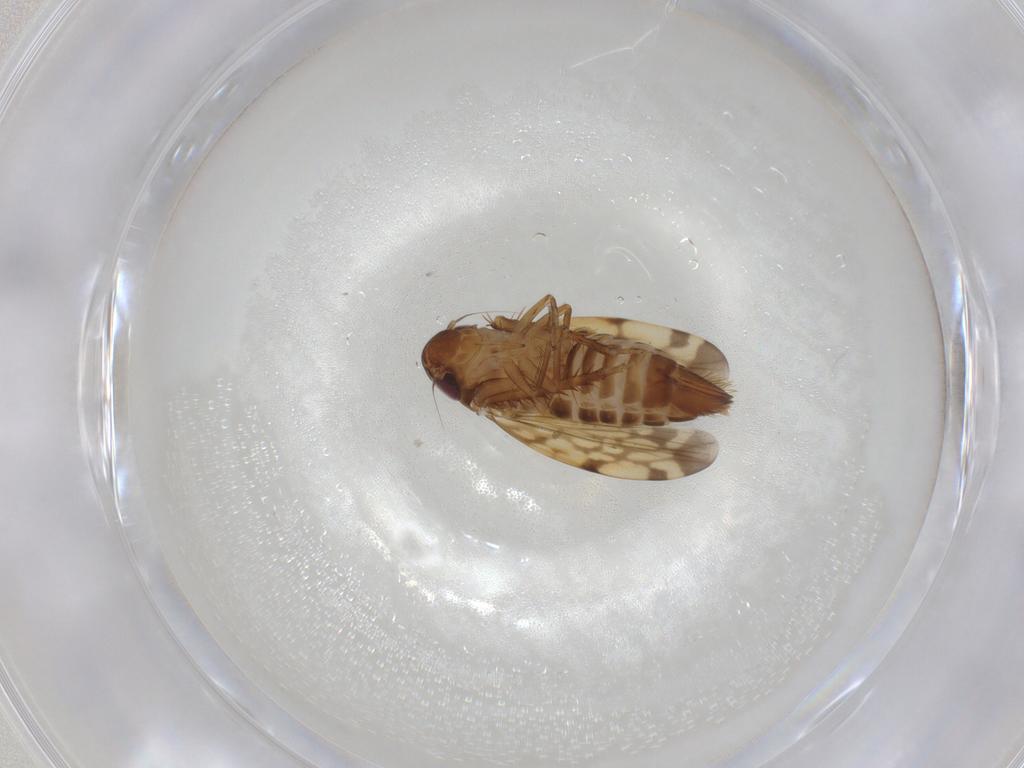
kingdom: Animalia
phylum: Arthropoda
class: Insecta
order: Hemiptera
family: Cicadellidae
